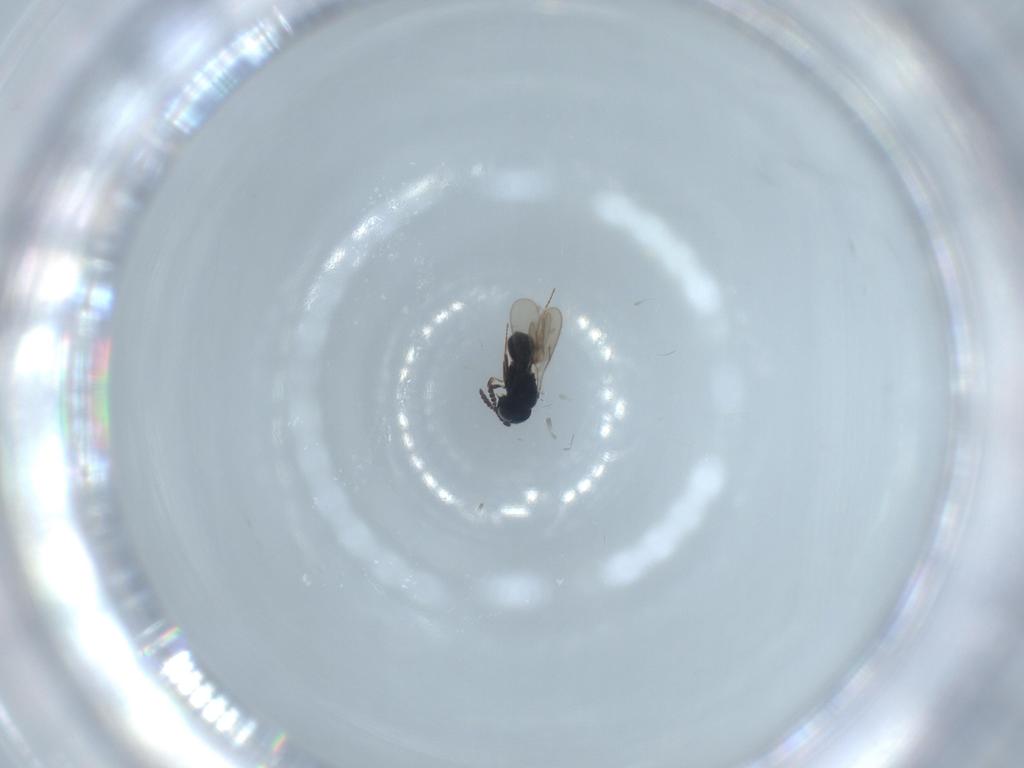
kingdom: Animalia
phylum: Arthropoda
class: Insecta
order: Hymenoptera
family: Scelionidae
